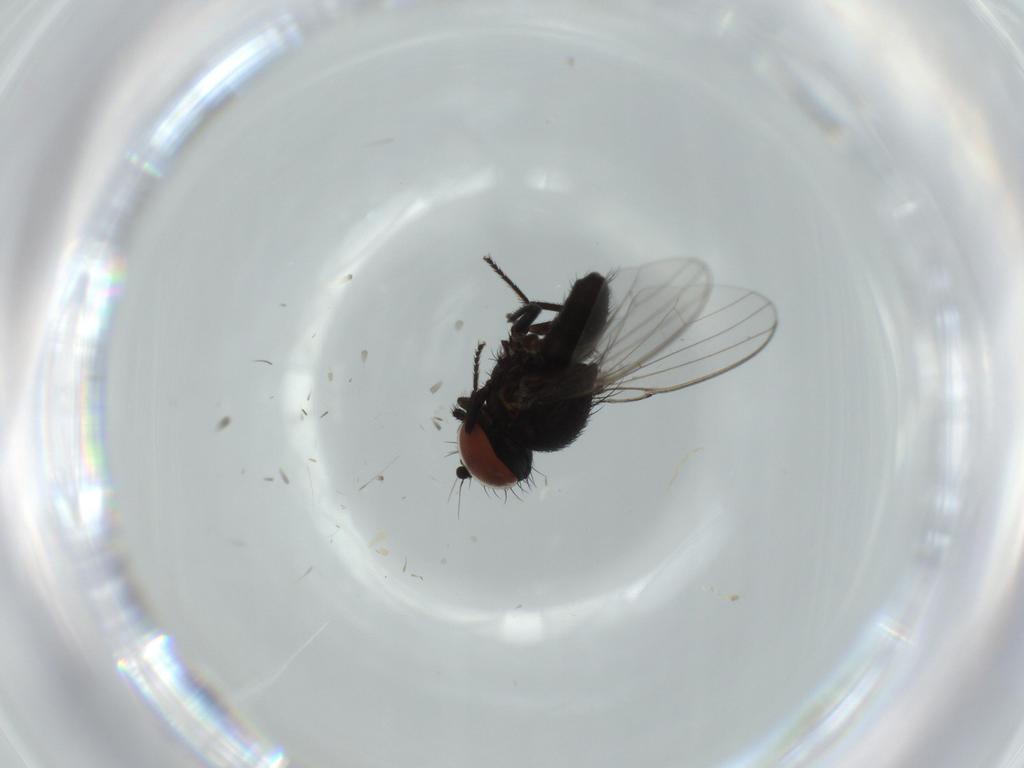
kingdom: Animalia
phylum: Arthropoda
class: Insecta
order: Diptera
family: Milichiidae
